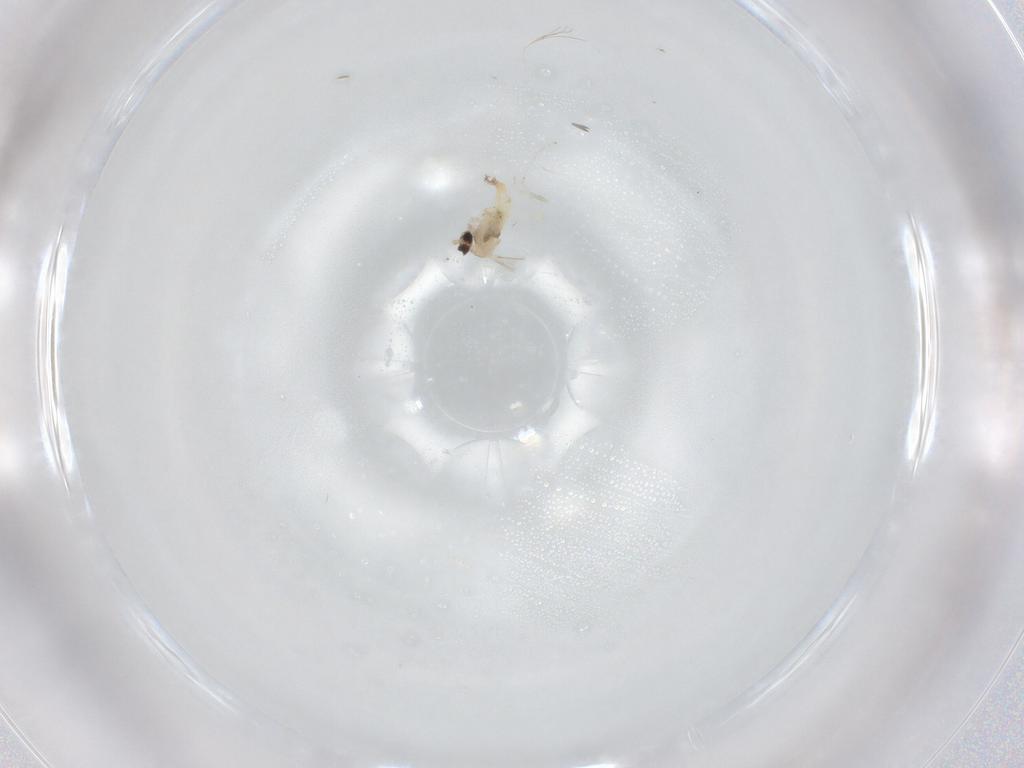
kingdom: Animalia
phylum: Arthropoda
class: Insecta
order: Diptera
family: Cecidomyiidae
